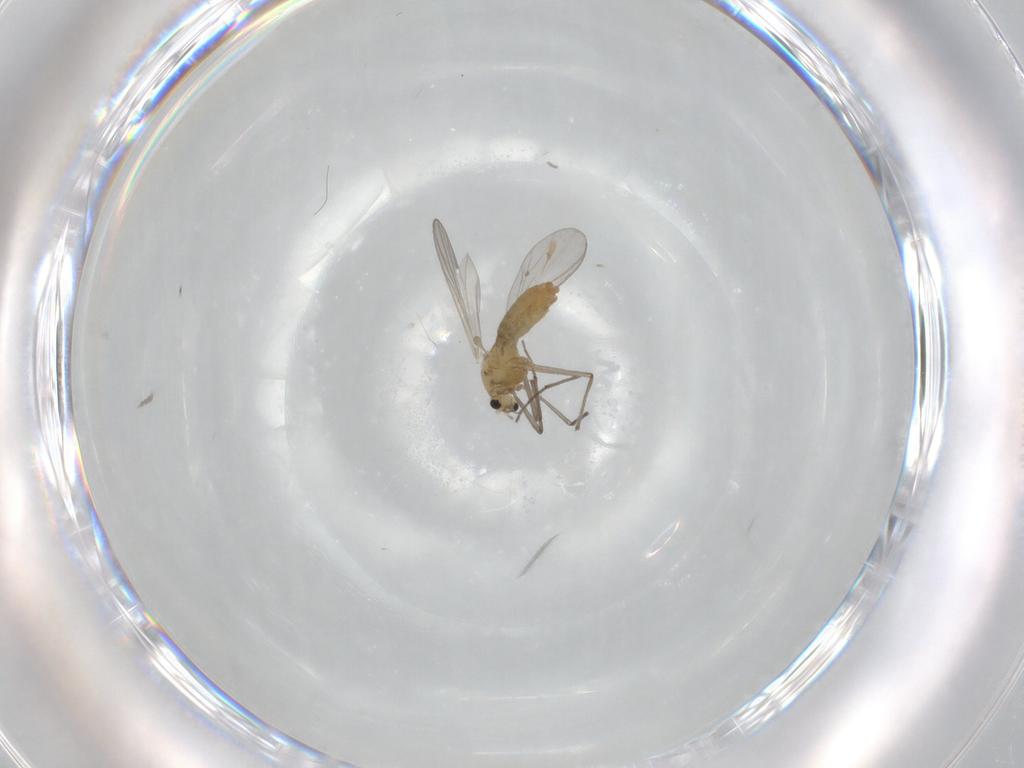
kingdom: Animalia
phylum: Arthropoda
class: Insecta
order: Diptera
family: Chironomidae
